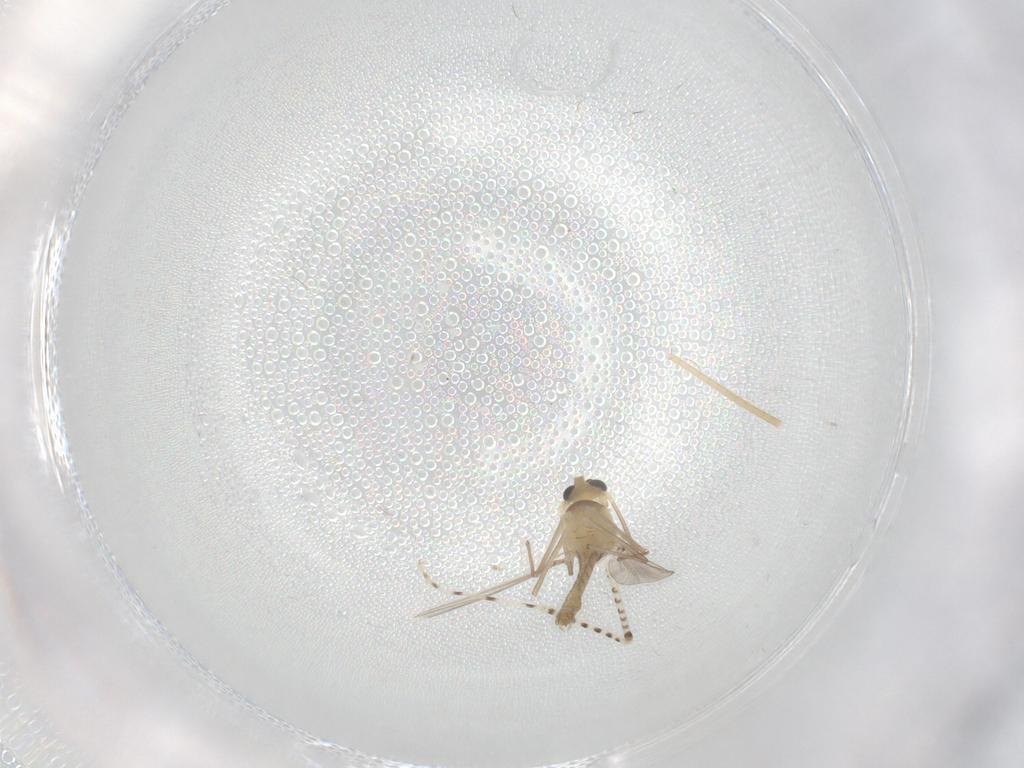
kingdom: Animalia
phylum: Arthropoda
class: Insecta
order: Diptera
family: Chaoboridae
